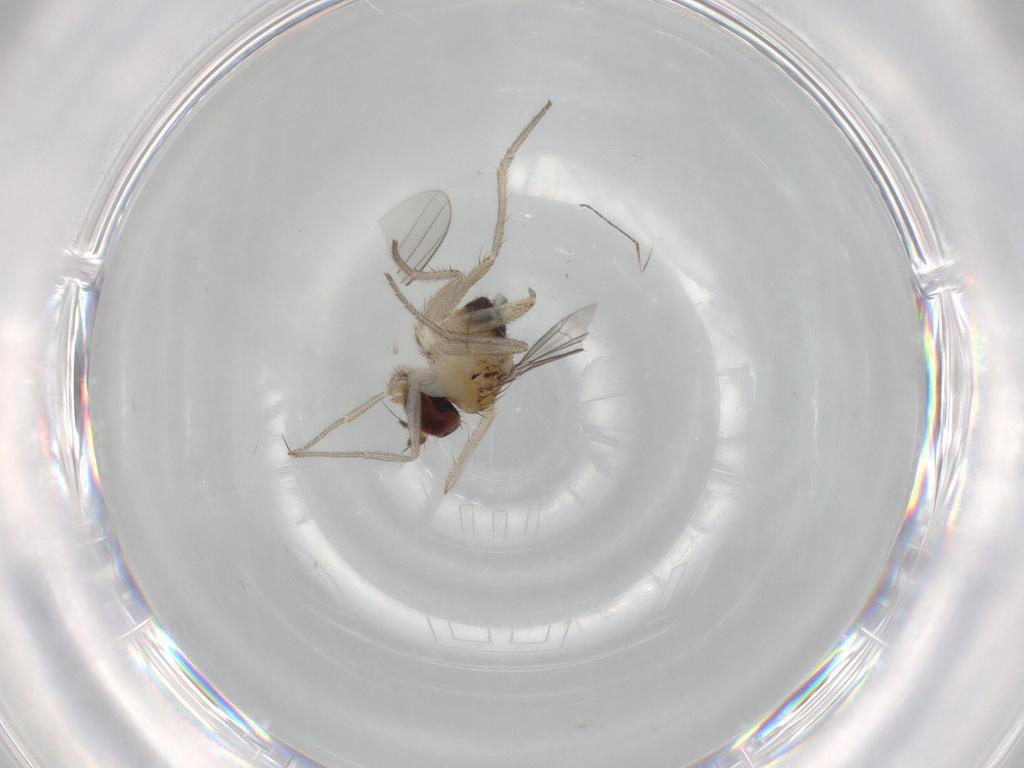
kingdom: Animalia
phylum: Arthropoda
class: Insecta
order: Diptera
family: Dolichopodidae
